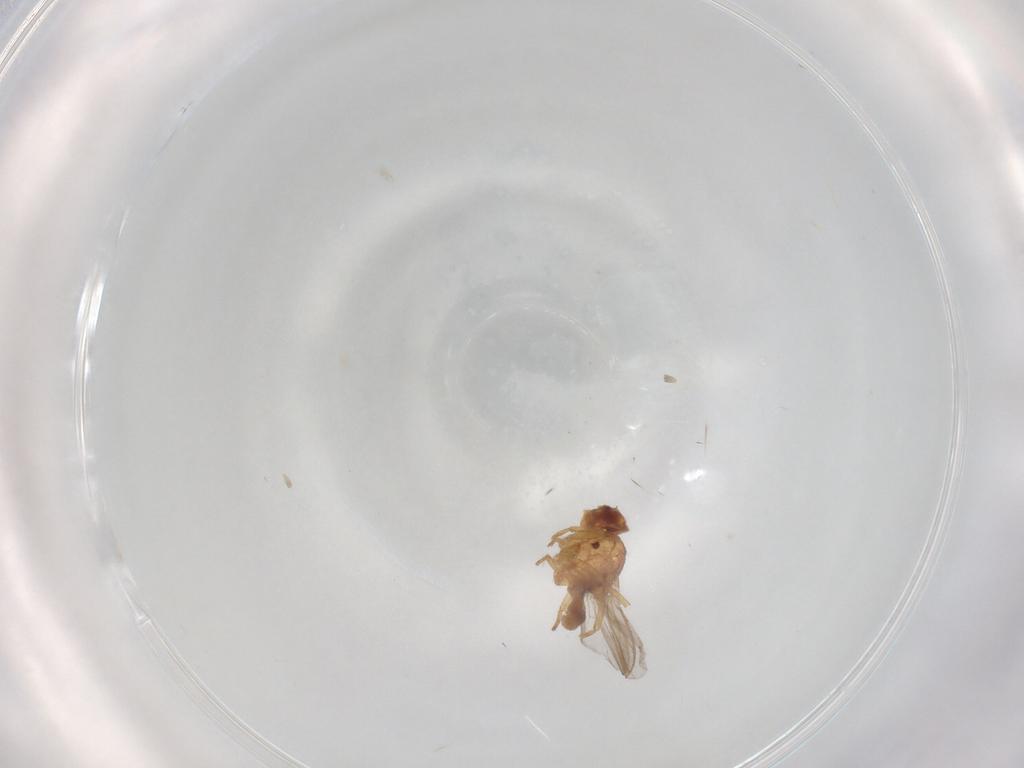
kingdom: Animalia
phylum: Arthropoda
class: Insecta
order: Diptera
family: Chloropidae
